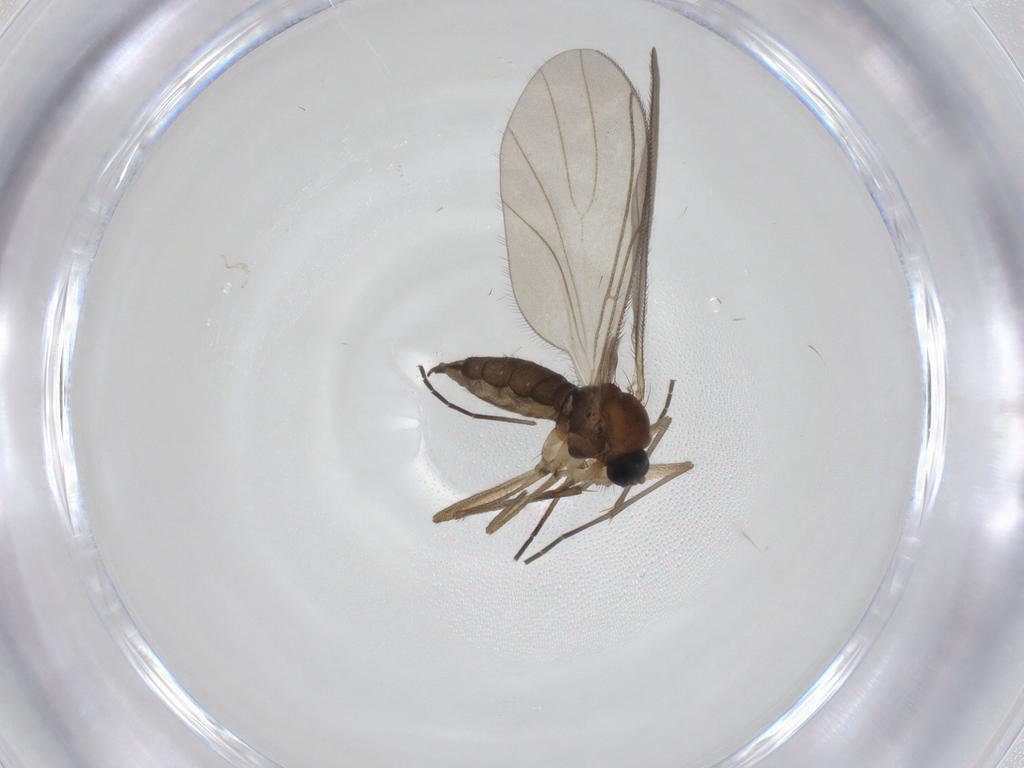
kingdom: Animalia
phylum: Arthropoda
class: Insecta
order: Diptera
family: Sciaridae
